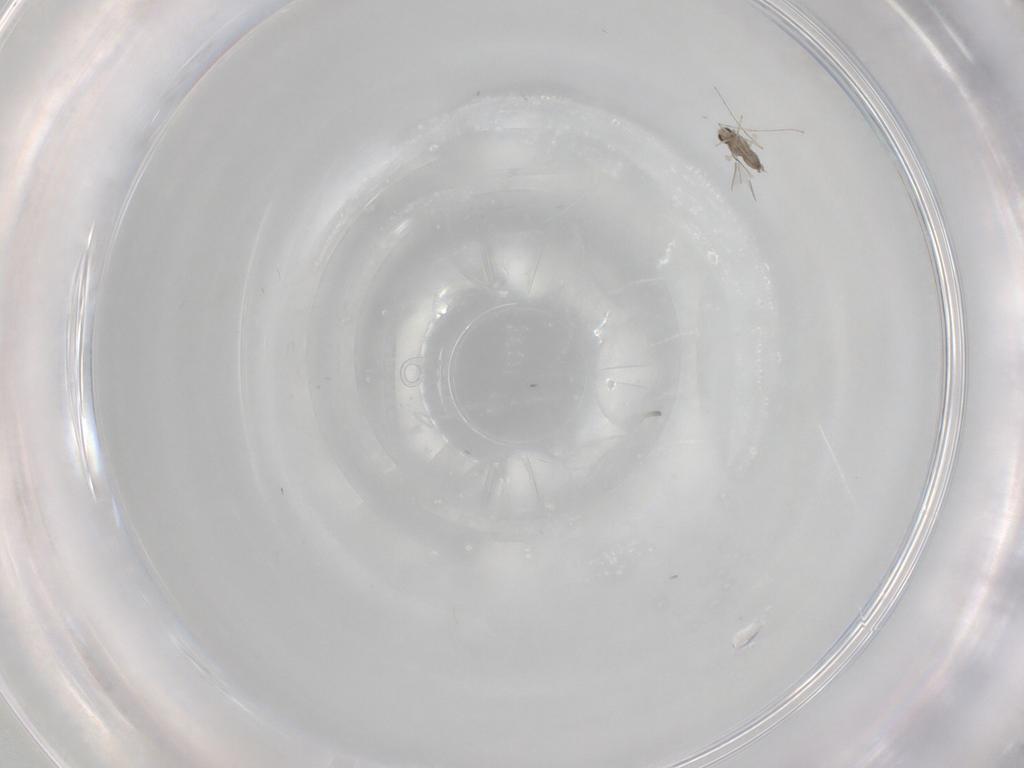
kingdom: Animalia
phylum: Arthropoda
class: Insecta
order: Diptera
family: Cecidomyiidae
